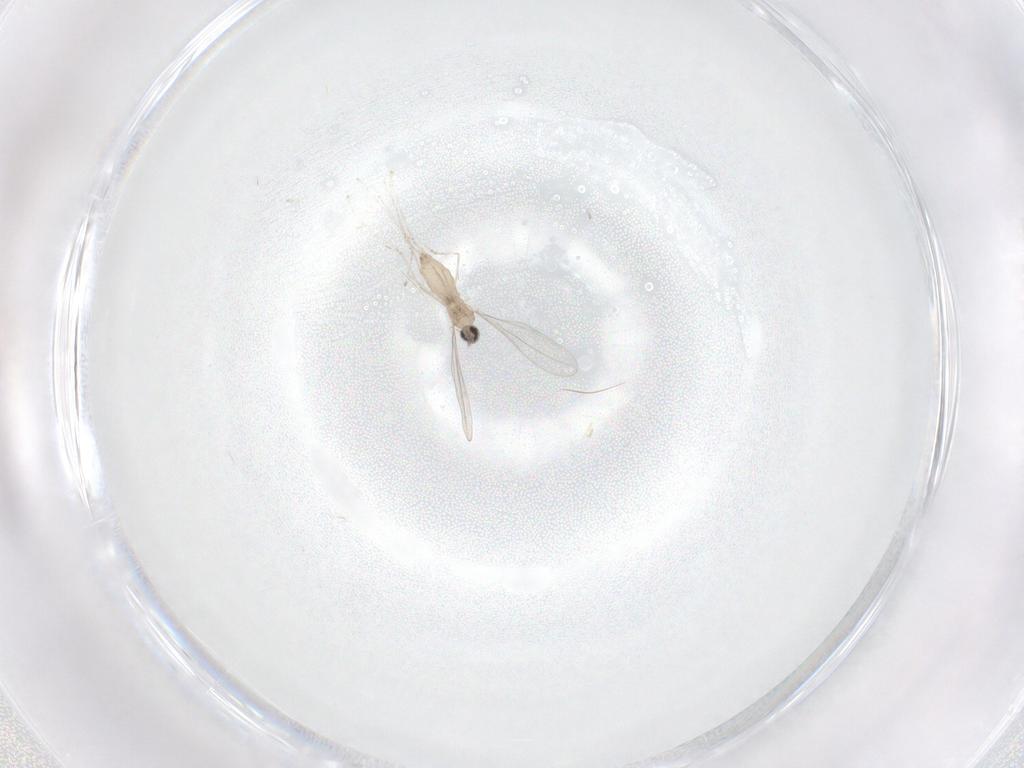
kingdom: Animalia
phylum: Arthropoda
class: Insecta
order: Diptera
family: Cecidomyiidae
